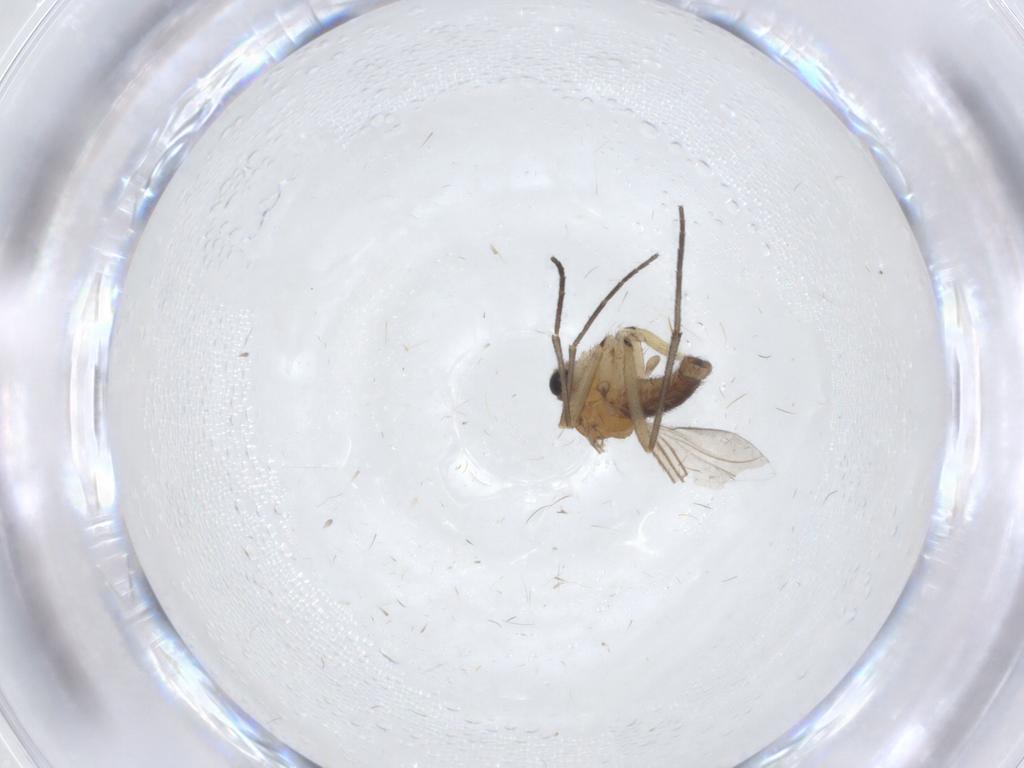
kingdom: Animalia
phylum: Arthropoda
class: Insecta
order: Diptera
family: Sciaridae
